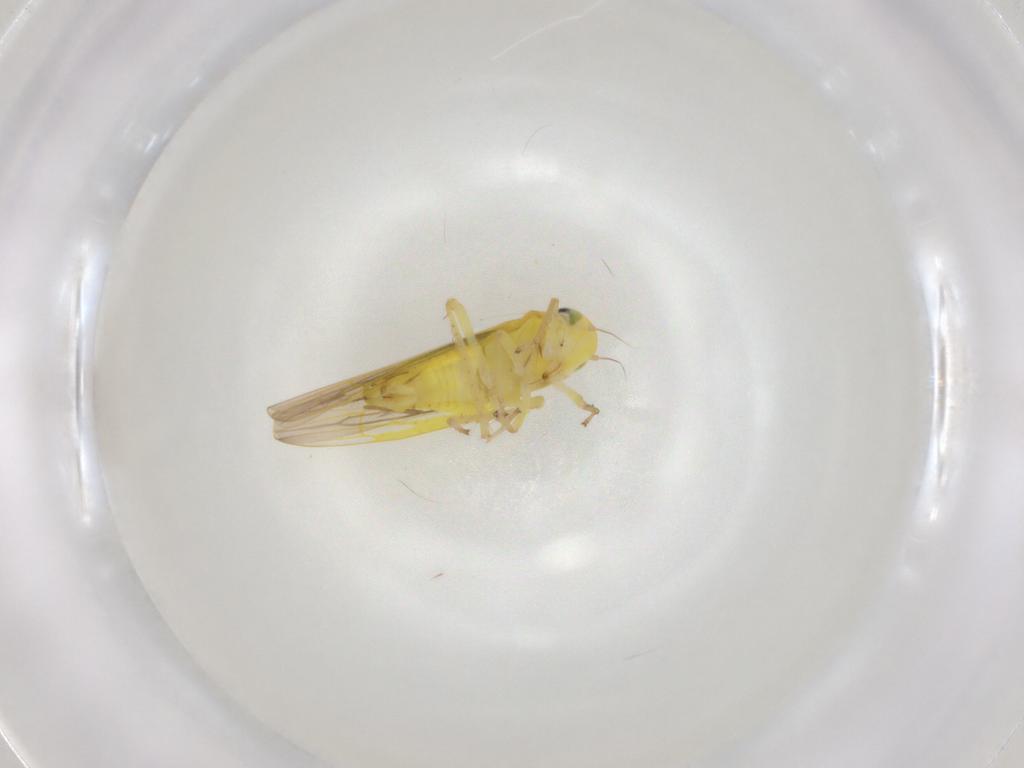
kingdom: Animalia
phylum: Arthropoda
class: Insecta
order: Hemiptera
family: Cicadellidae
